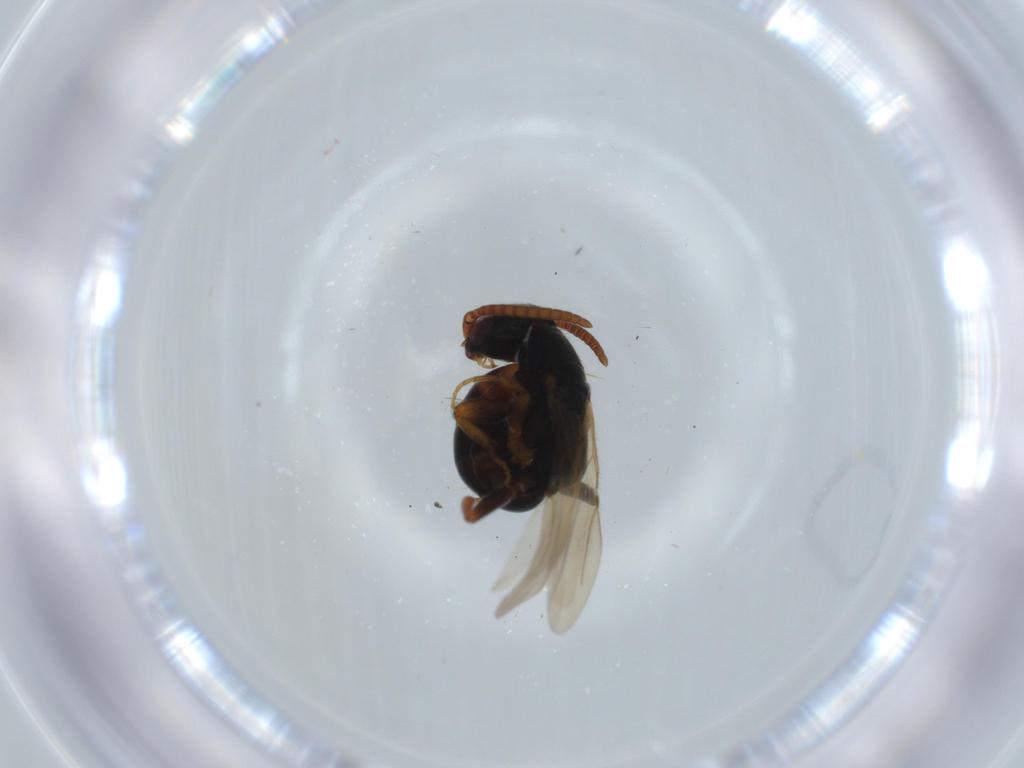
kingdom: Animalia
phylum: Arthropoda
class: Insecta
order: Hymenoptera
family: Bethylidae
